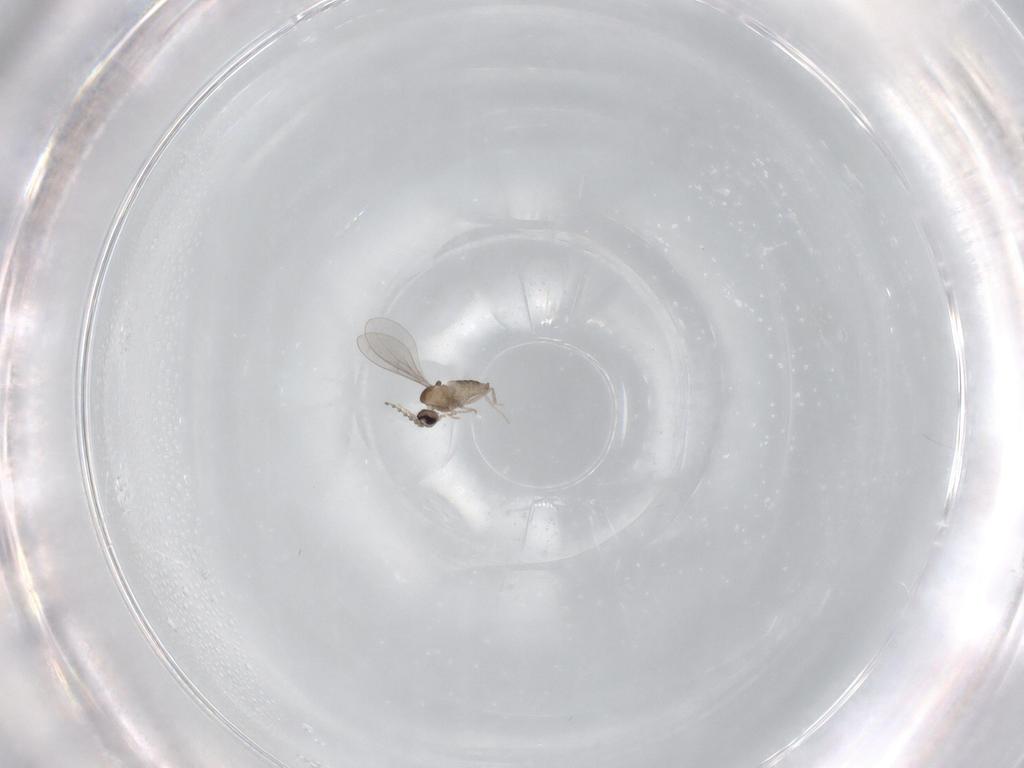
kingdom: Animalia
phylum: Arthropoda
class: Insecta
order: Diptera
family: Cecidomyiidae
